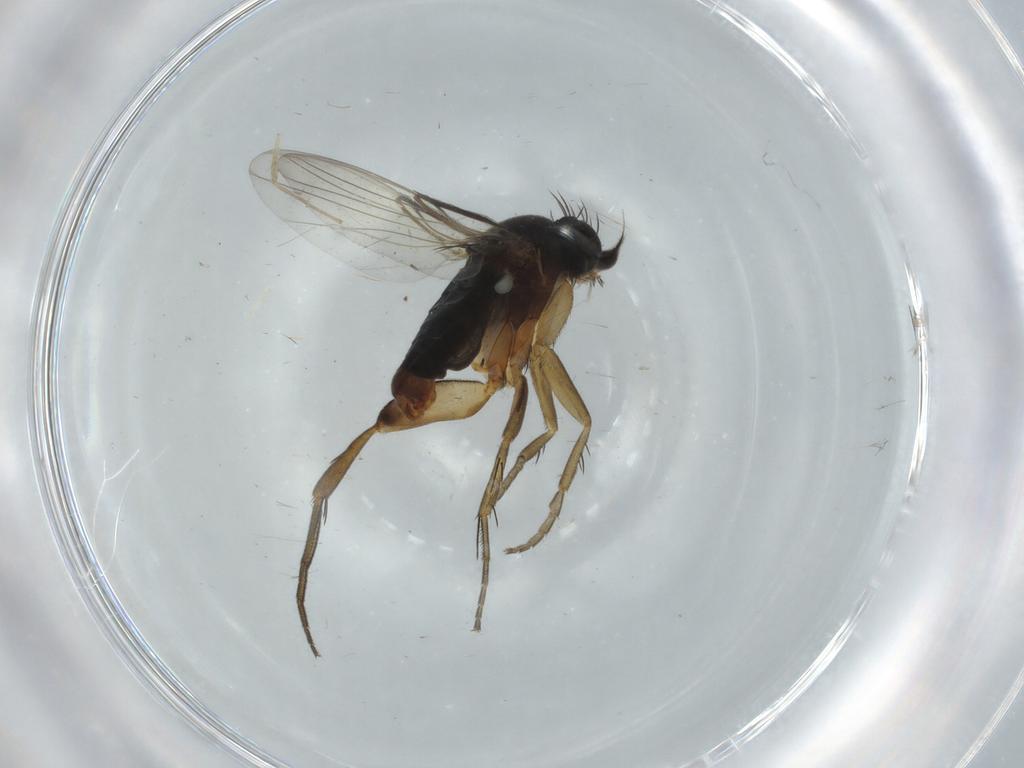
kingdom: Animalia
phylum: Arthropoda
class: Insecta
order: Diptera
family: Phoridae
